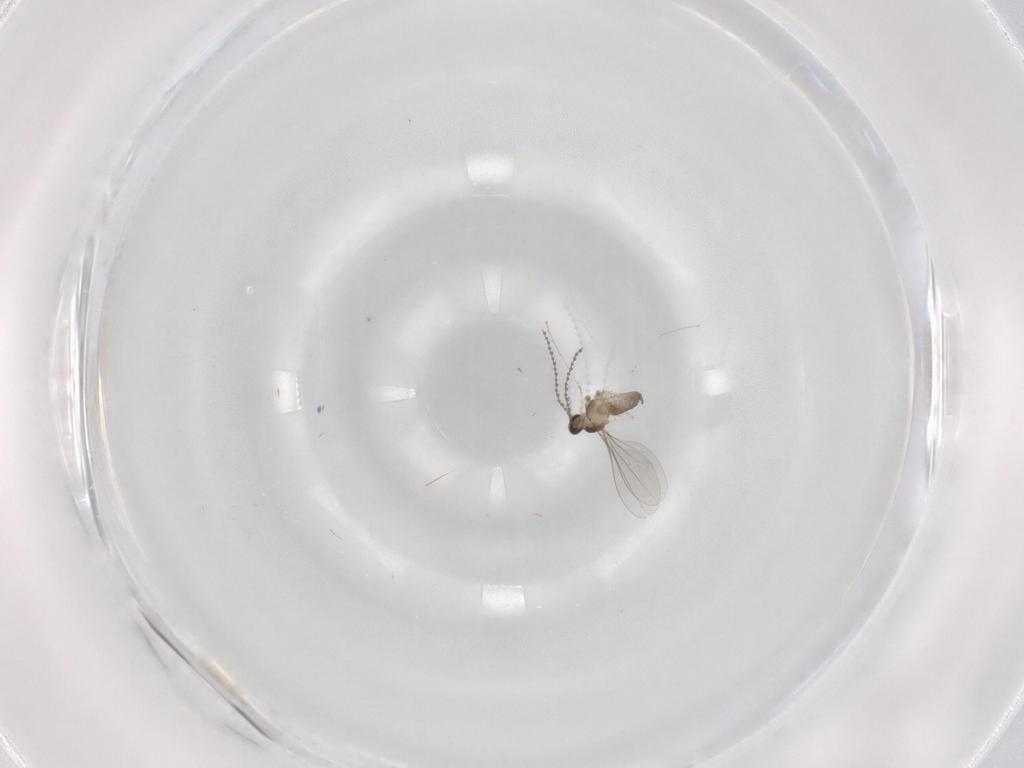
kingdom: Animalia
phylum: Arthropoda
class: Insecta
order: Diptera
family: Cecidomyiidae
